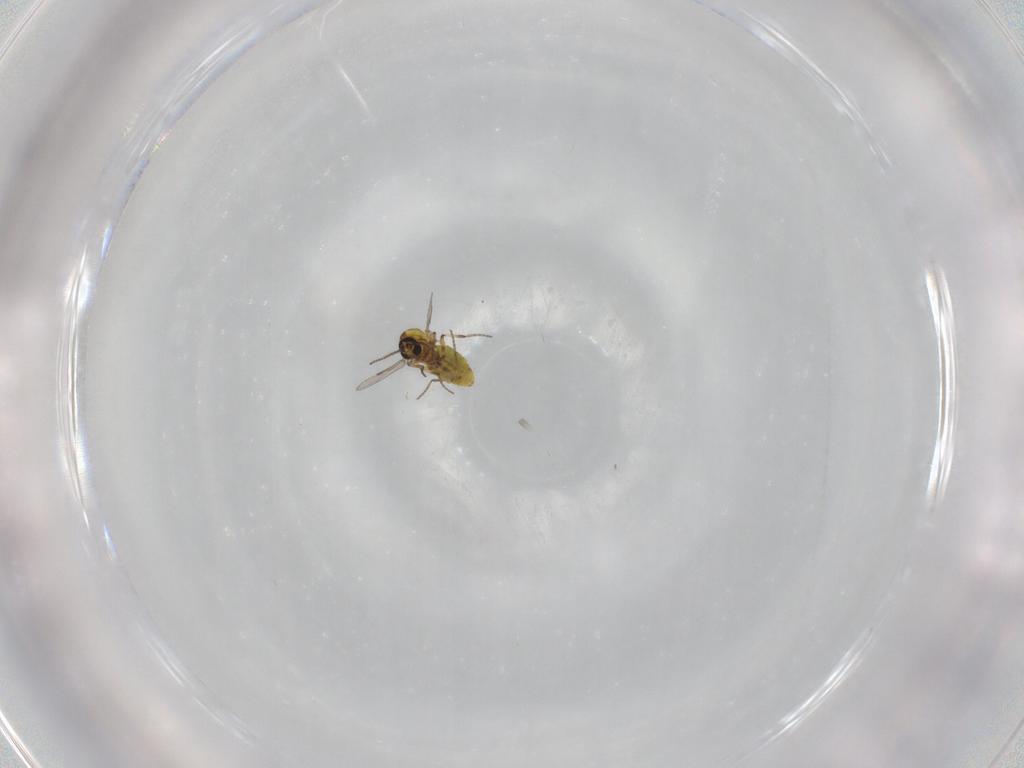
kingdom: Animalia
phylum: Arthropoda
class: Insecta
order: Diptera
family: Ceratopogonidae
